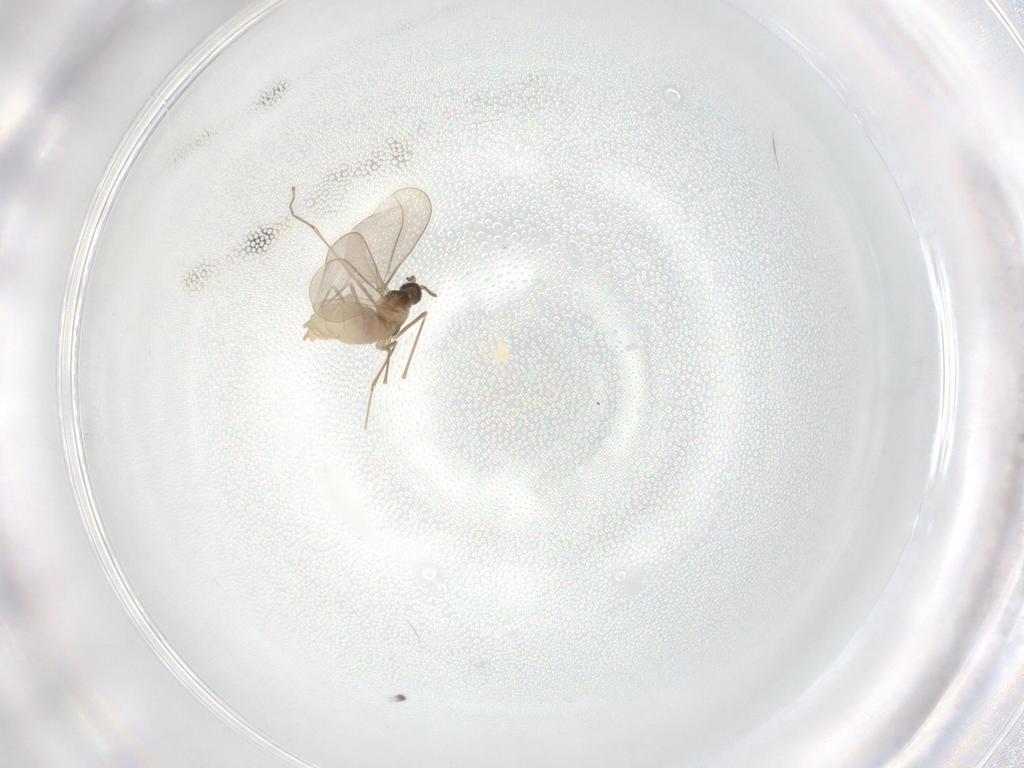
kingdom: Animalia
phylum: Arthropoda
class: Insecta
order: Diptera
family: Cecidomyiidae
